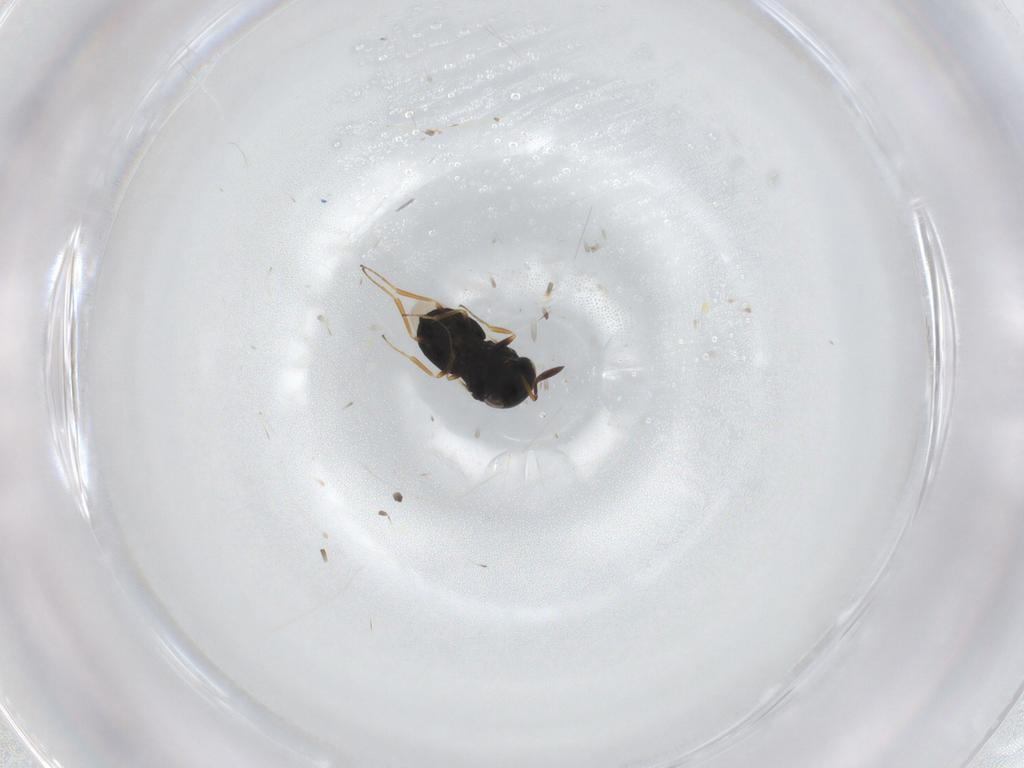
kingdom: Animalia
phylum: Arthropoda
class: Insecta
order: Hymenoptera
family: Scelionidae
